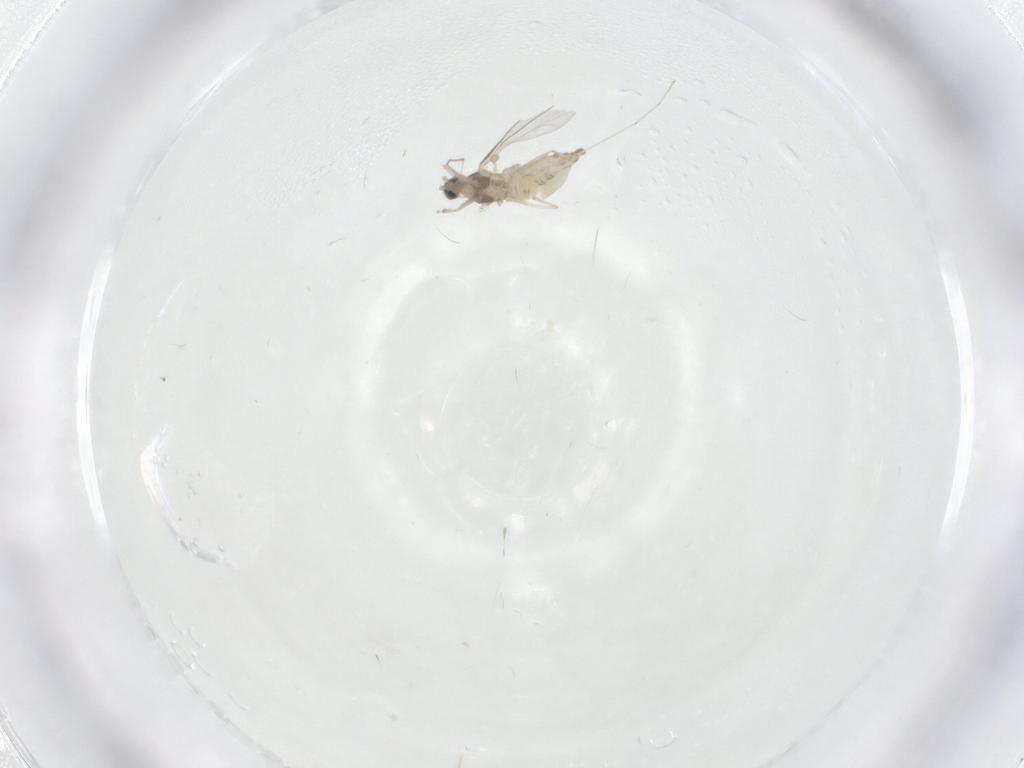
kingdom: Animalia
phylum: Arthropoda
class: Insecta
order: Diptera
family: Cecidomyiidae
